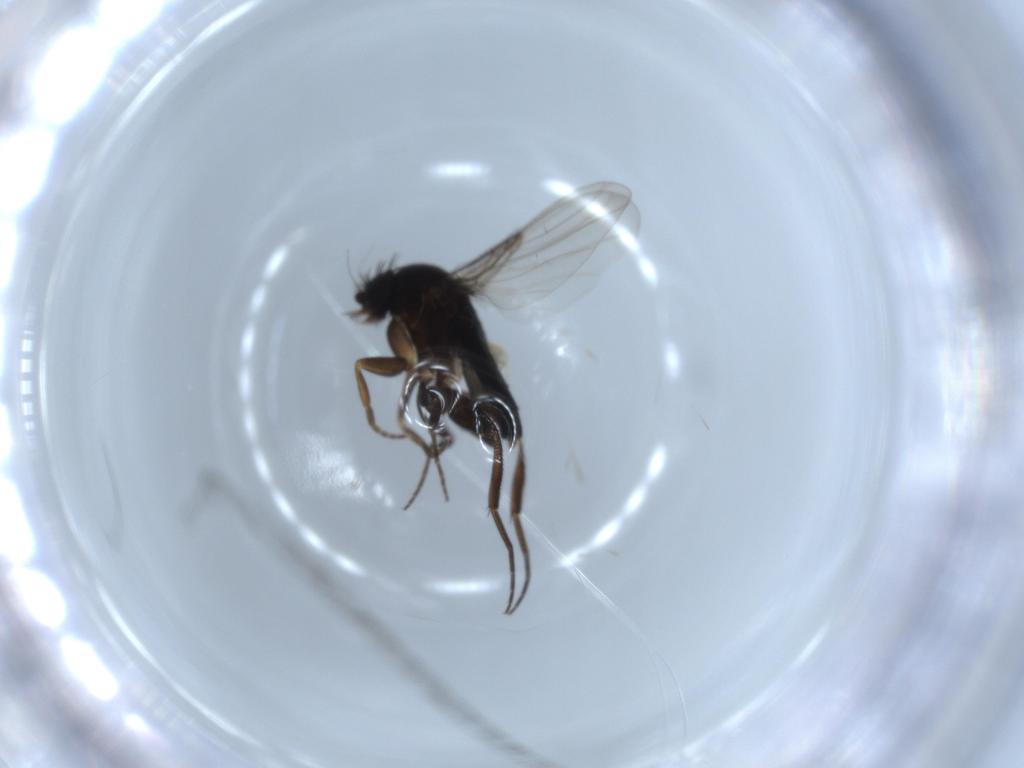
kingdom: Animalia
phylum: Arthropoda
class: Insecta
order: Diptera
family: Phoridae
